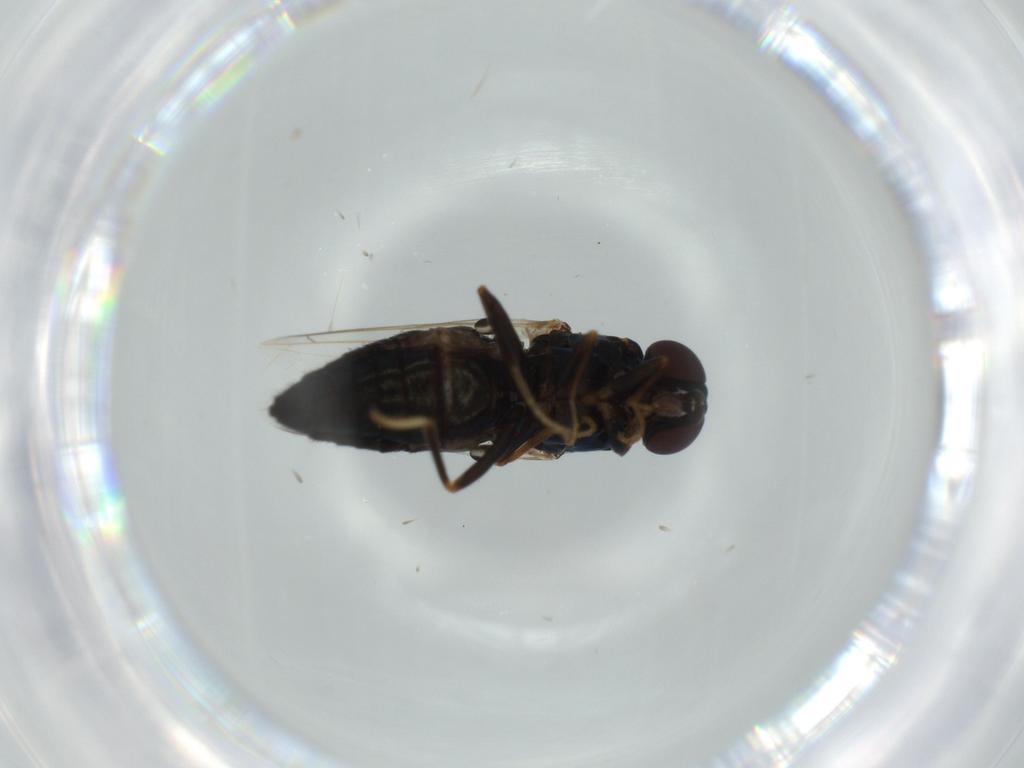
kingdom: Animalia
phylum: Arthropoda
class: Insecta
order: Diptera
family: Scenopinidae
